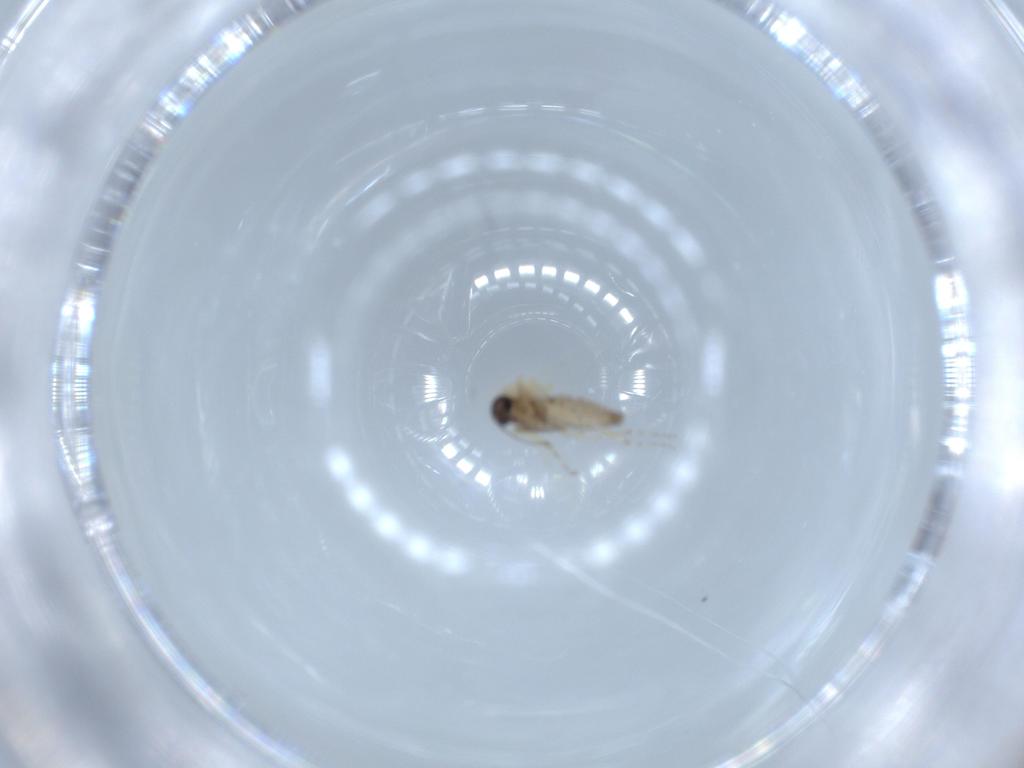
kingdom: Animalia
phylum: Arthropoda
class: Insecta
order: Diptera
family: Ceratopogonidae
